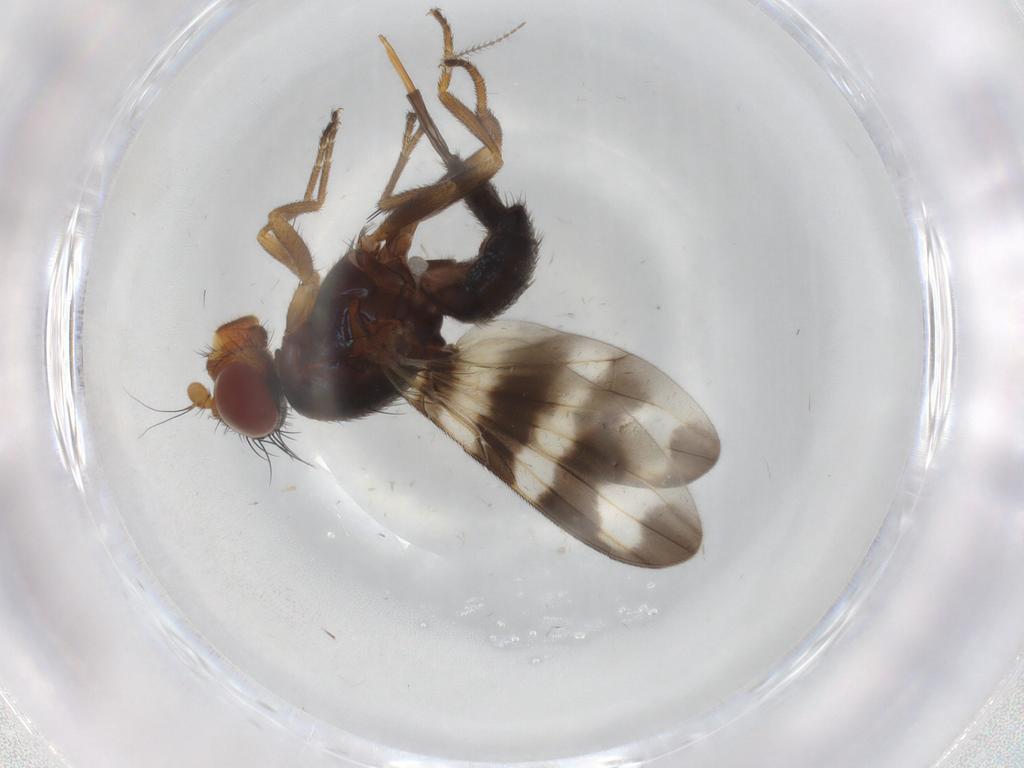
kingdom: Animalia
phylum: Arthropoda
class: Insecta
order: Diptera
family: Ceratopogonidae
